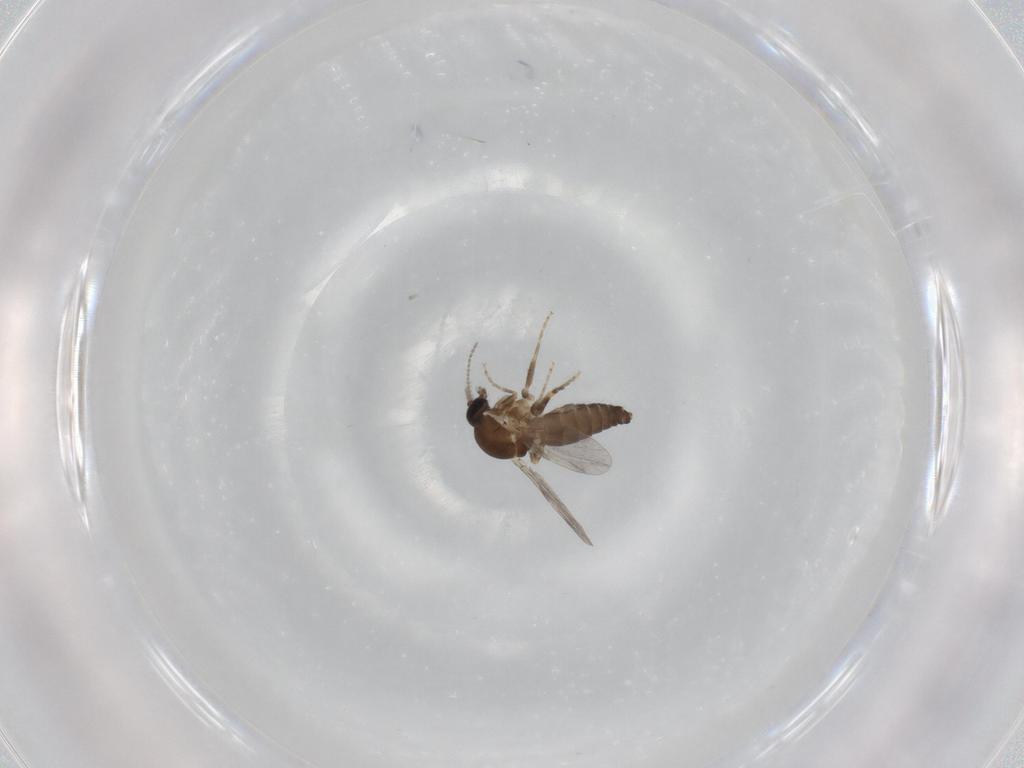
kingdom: Animalia
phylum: Arthropoda
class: Insecta
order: Diptera
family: Ceratopogonidae
